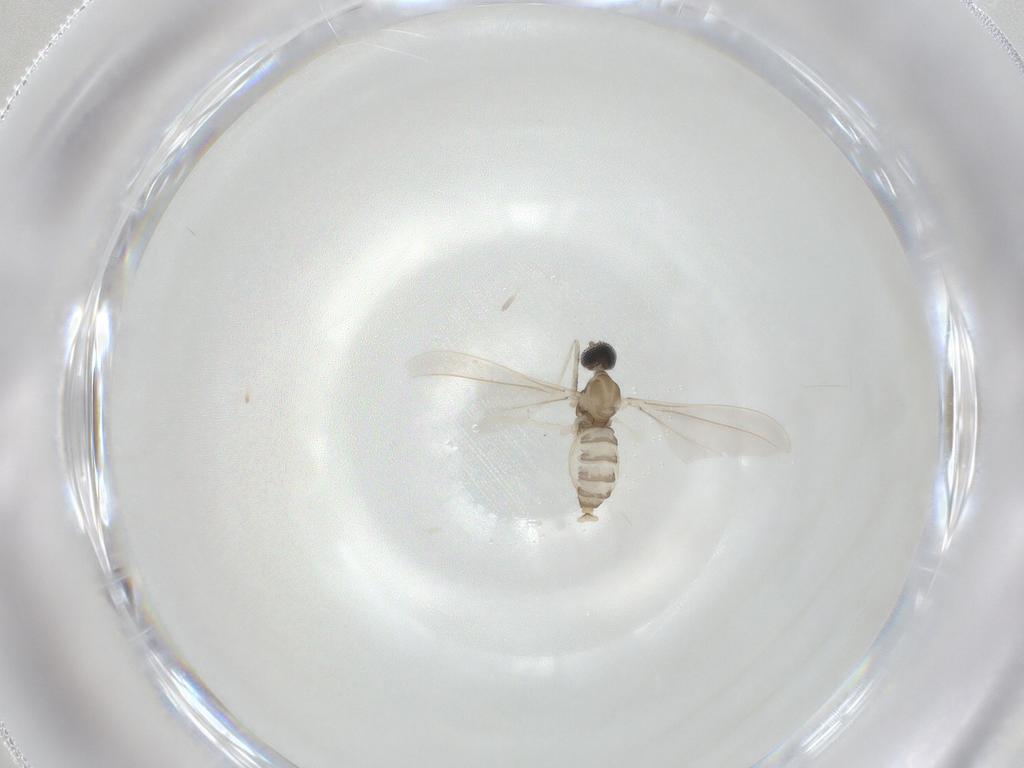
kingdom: Animalia
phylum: Arthropoda
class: Insecta
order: Diptera
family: Cecidomyiidae
